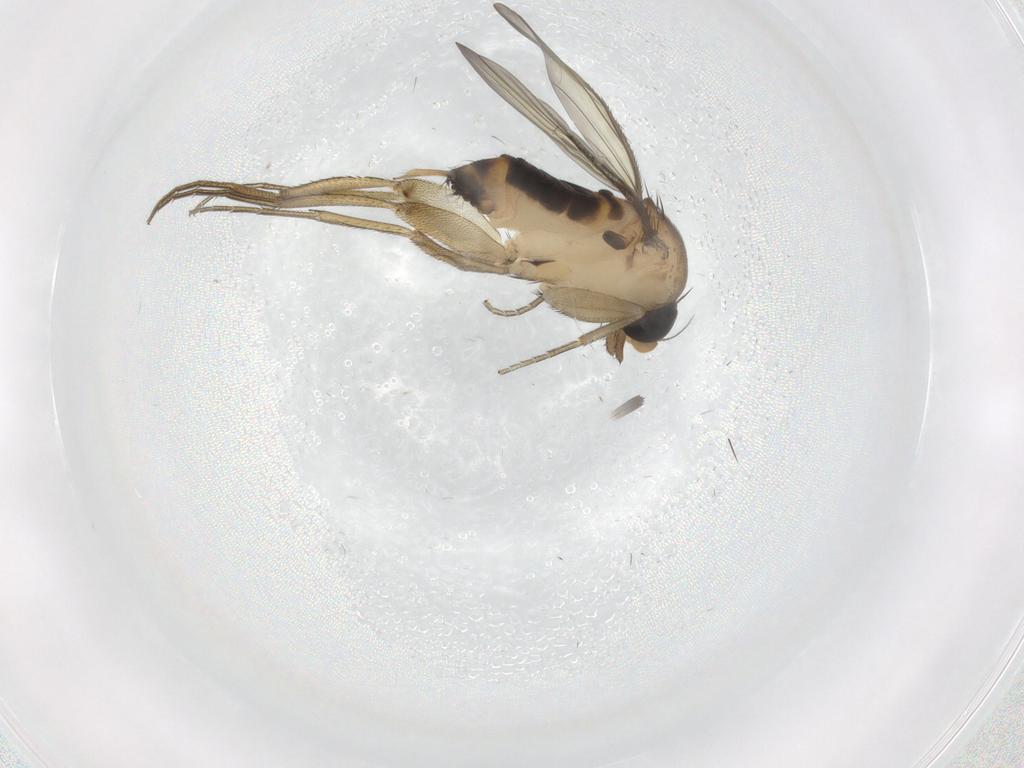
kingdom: Animalia
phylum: Arthropoda
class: Insecta
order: Diptera
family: Phoridae
